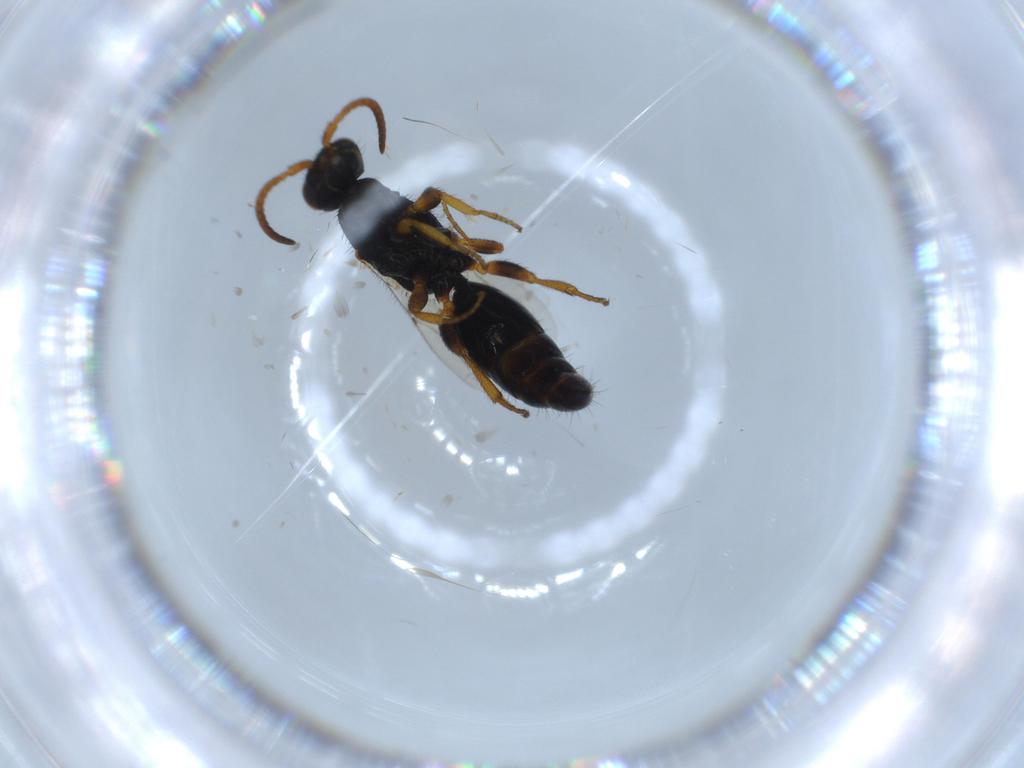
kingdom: Animalia
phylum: Arthropoda
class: Insecta
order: Hymenoptera
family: Bethylidae
